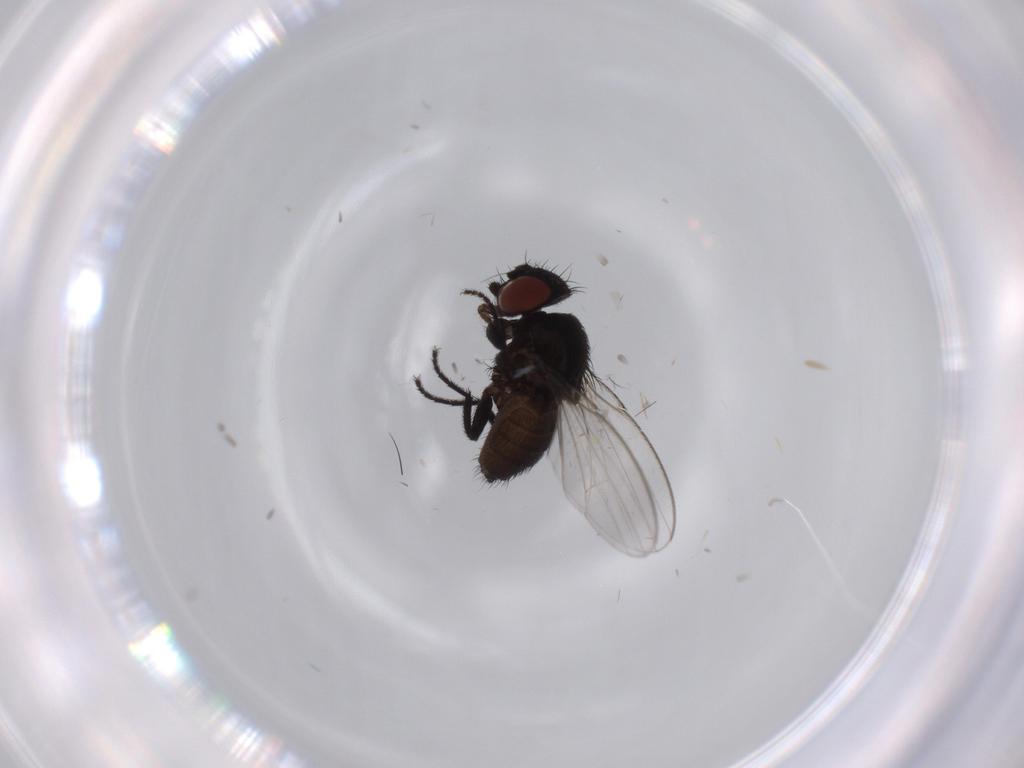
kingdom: Animalia
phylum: Arthropoda
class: Insecta
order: Diptera
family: Milichiidae
